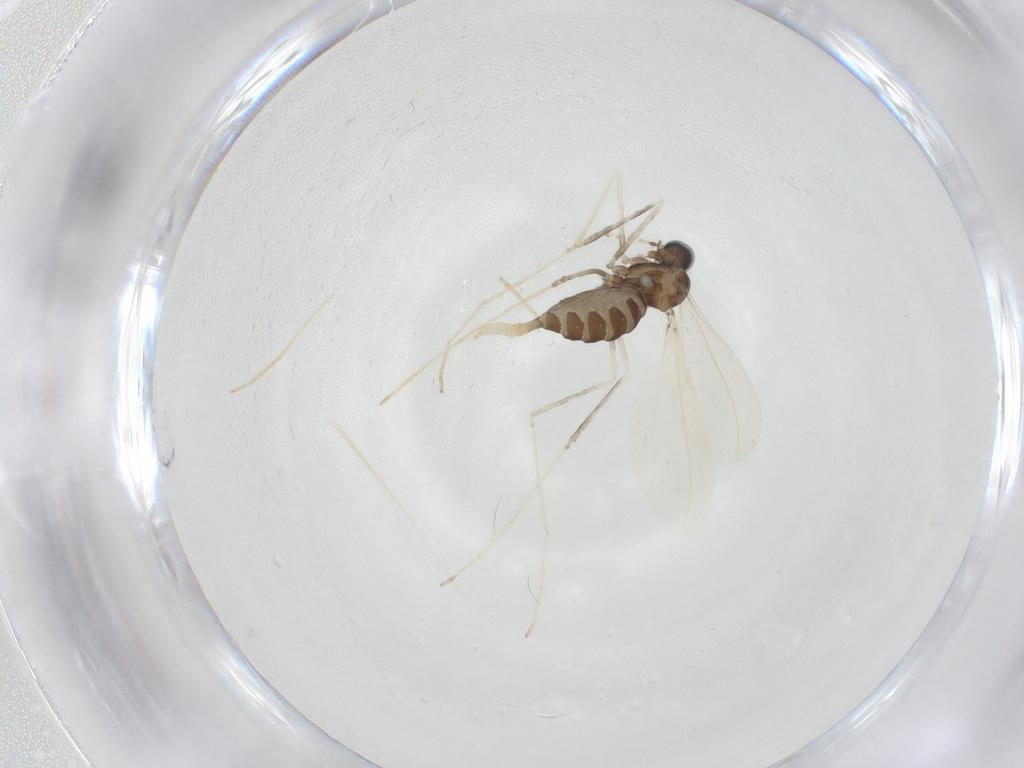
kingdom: Animalia
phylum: Arthropoda
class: Insecta
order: Diptera
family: Cecidomyiidae
